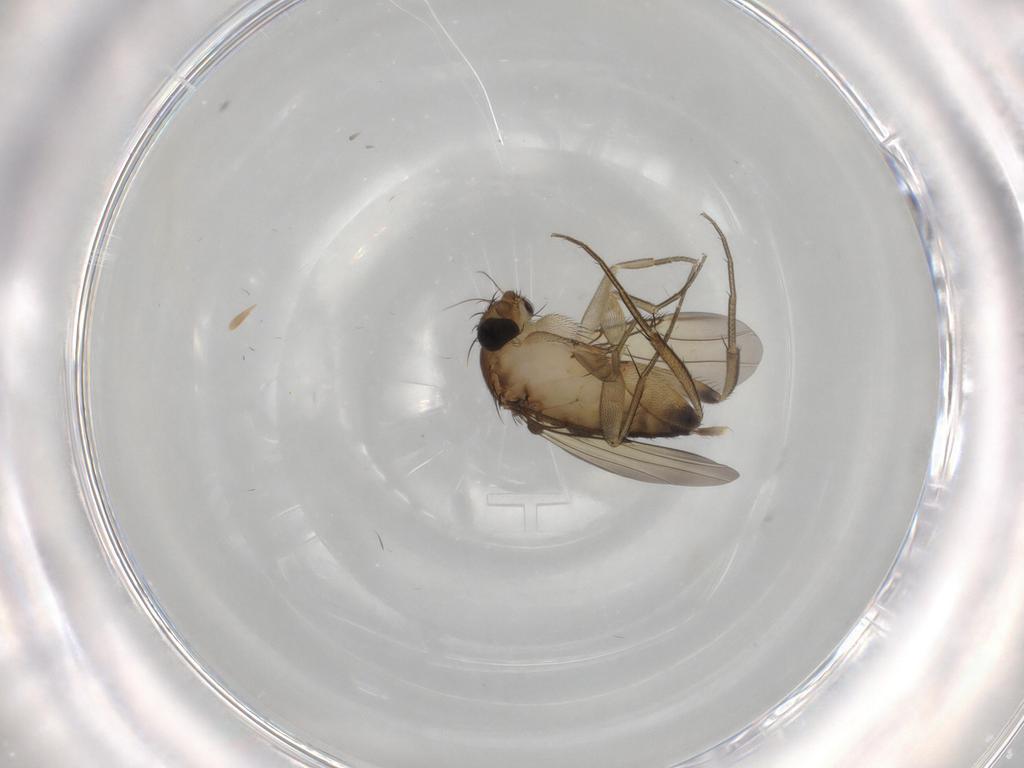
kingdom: Animalia
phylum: Arthropoda
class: Insecta
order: Diptera
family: Phoridae
